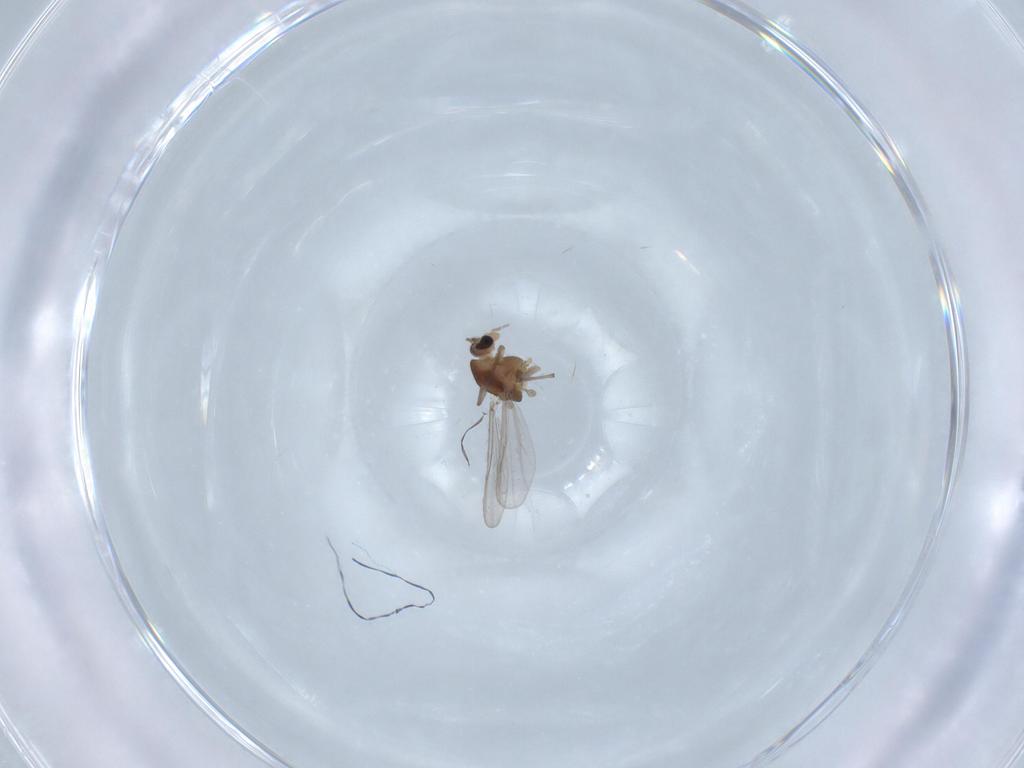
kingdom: Animalia
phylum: Arthropoda
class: Insecta
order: Diptera
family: Chironomidae
